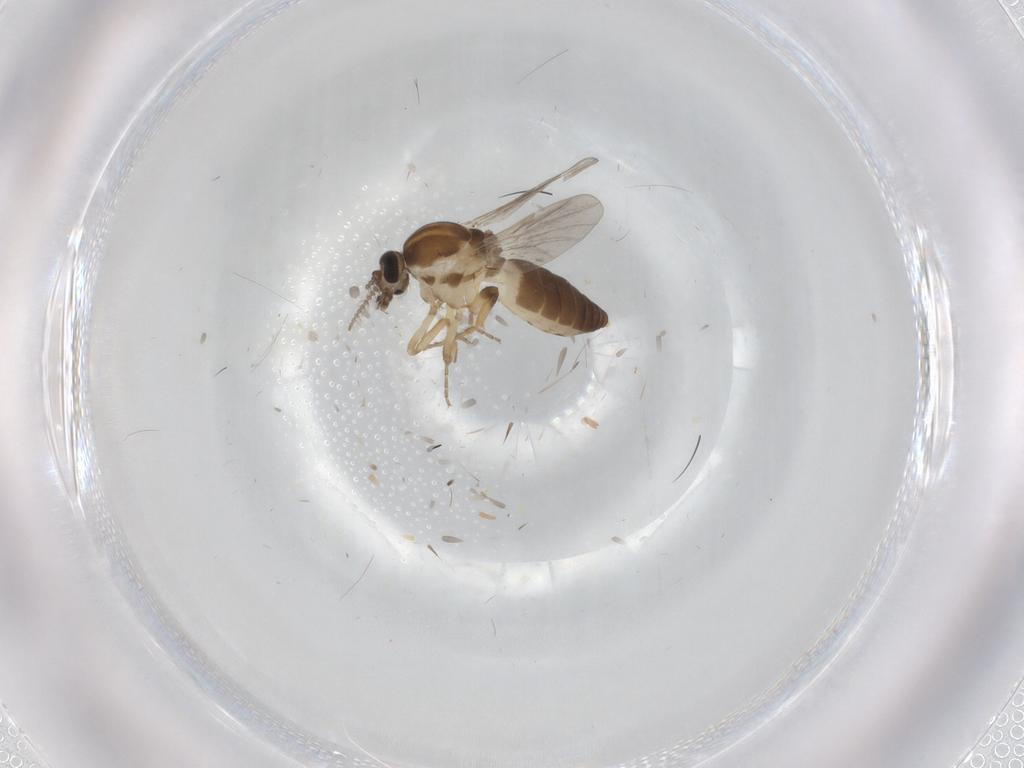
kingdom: Animalia
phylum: Arthropoda
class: Insecta
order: Diptera
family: Ceratopogonidae
